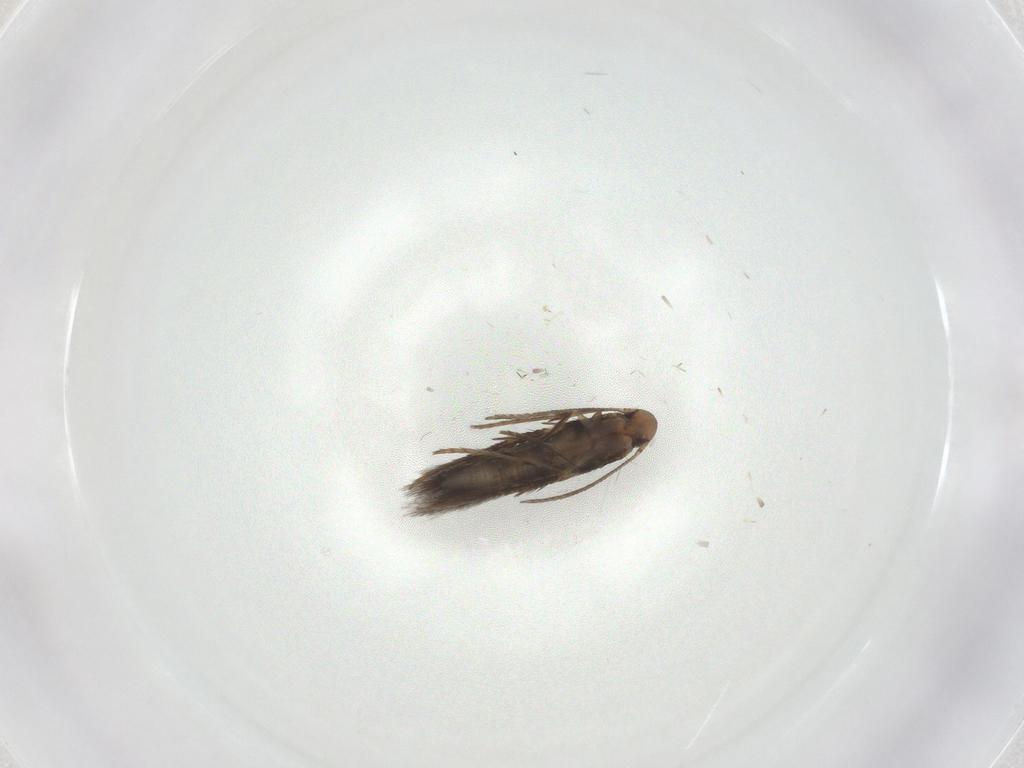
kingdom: Animalia
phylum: Arthropoda
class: Insecta
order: Lepidoptera
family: Gelechiidae
